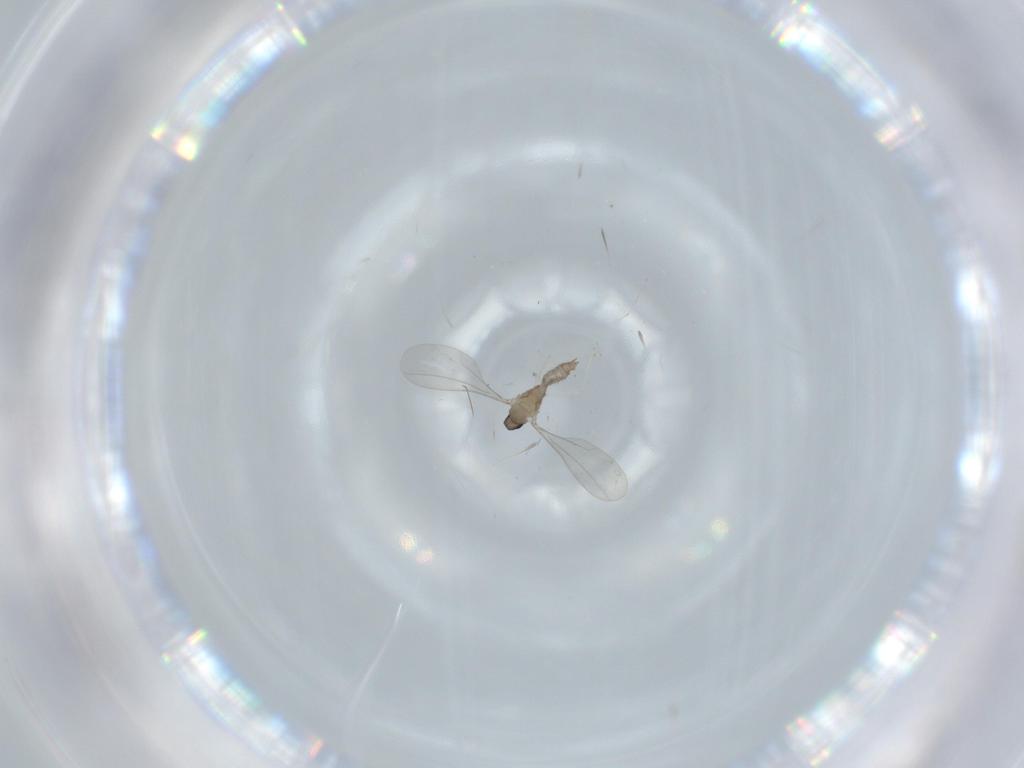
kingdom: Animalia
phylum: Arthropoda
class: Insecta
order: Diptera
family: Cecidomyiidae
